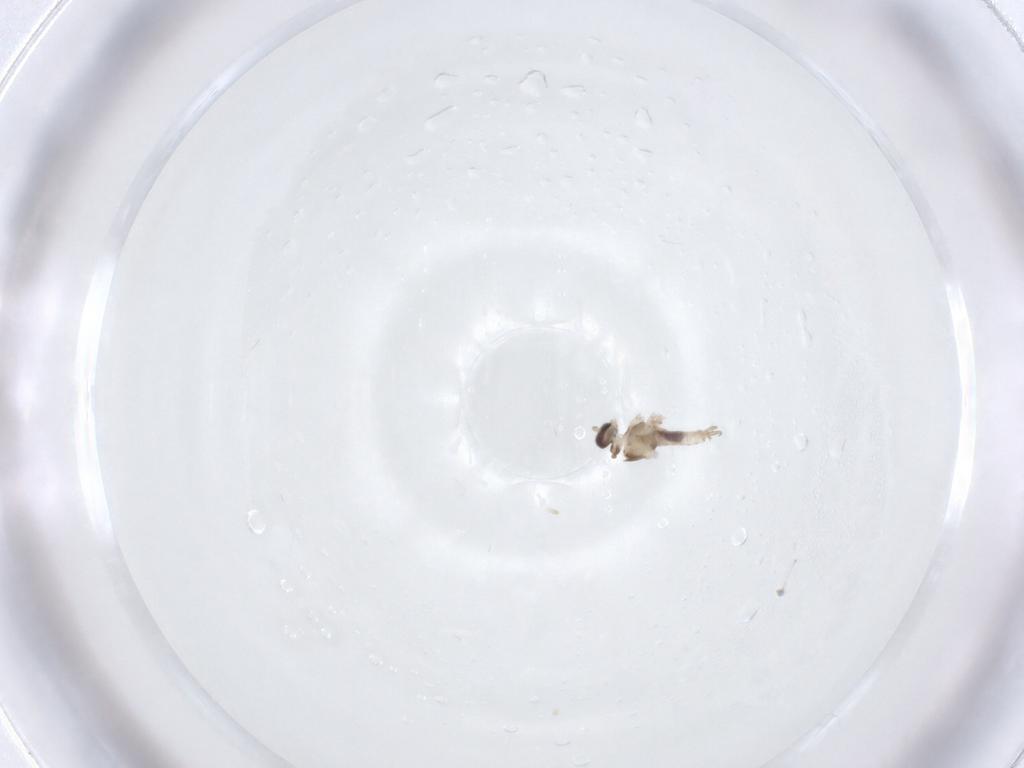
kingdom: Animalia
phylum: Arthropoda
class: Insecta
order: Diptera
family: Cecidomyiidae
